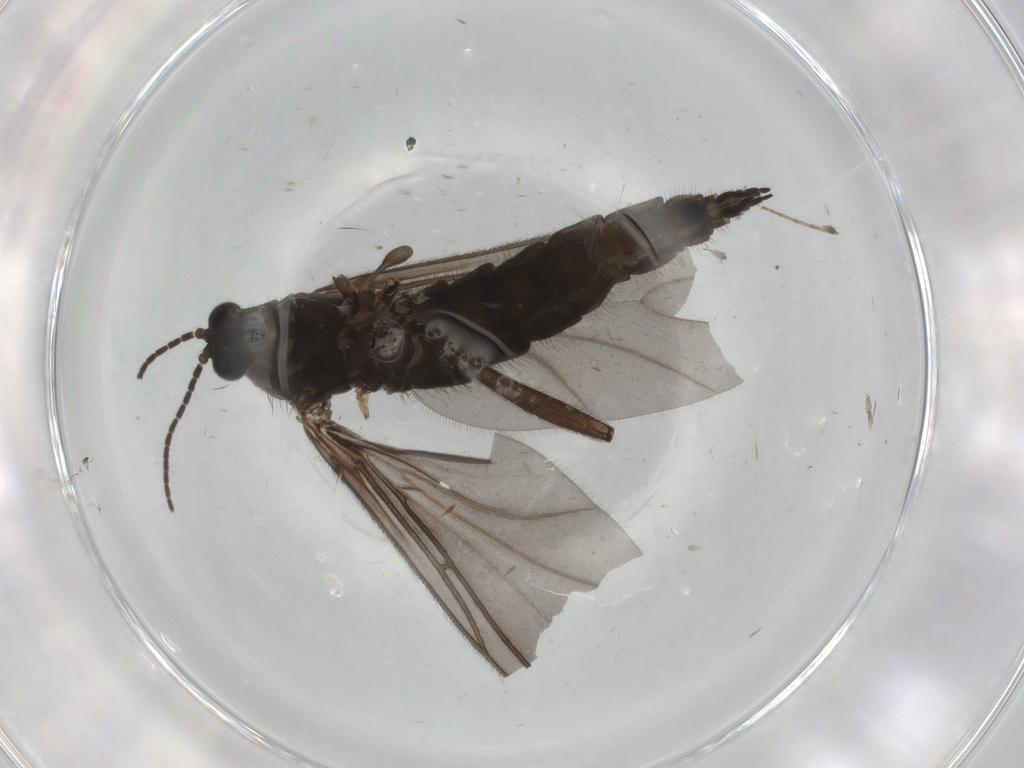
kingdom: Animalia
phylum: Arthropoda
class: Insecta
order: Diptera
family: Sciaridae
